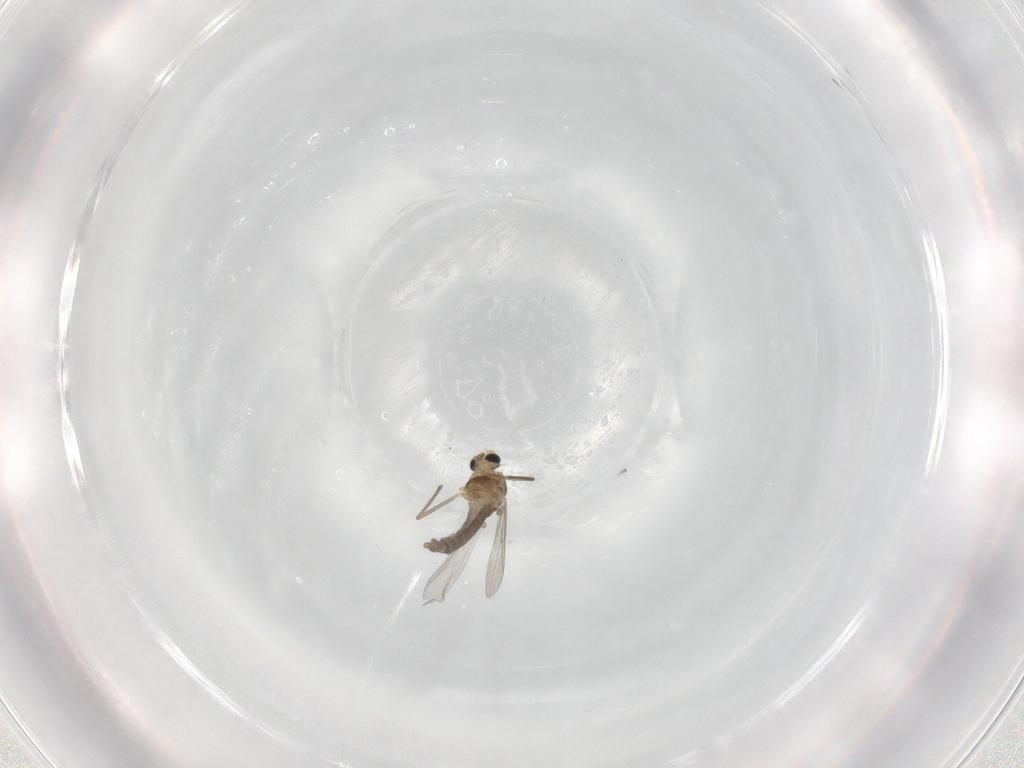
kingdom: Animalia
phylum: Arthropoda
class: Insecta
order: Diptera
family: Chironomidae
